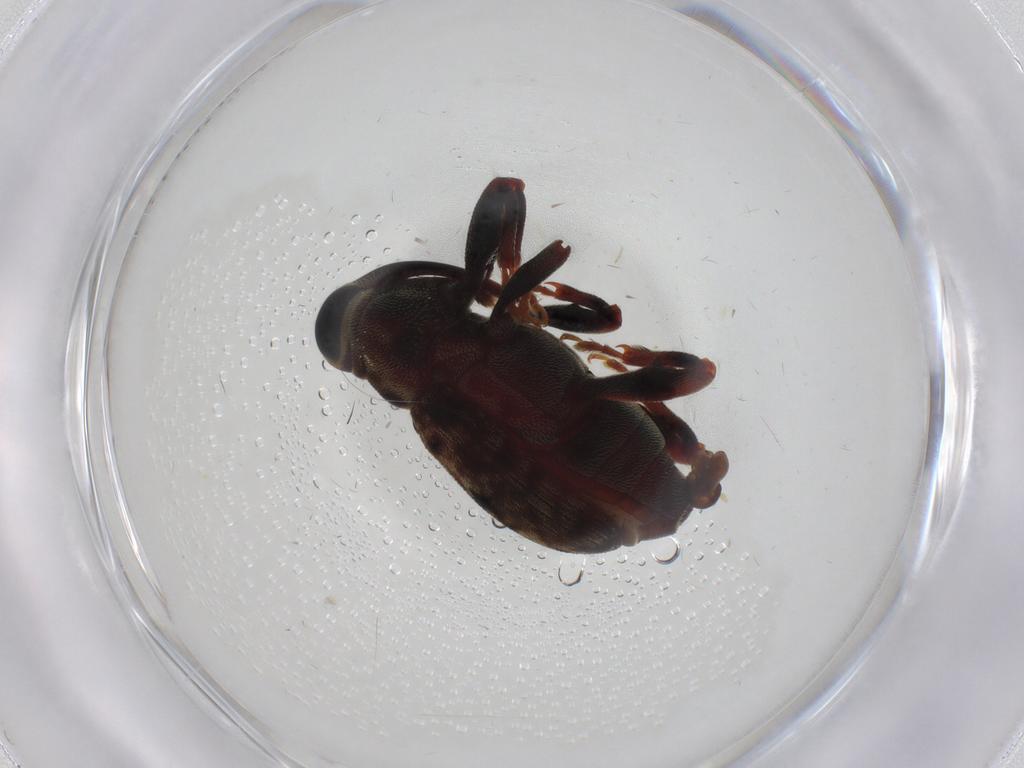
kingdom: Animalia
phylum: Arthropoda
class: Insecta
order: Coleoptera
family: Curculionidae
